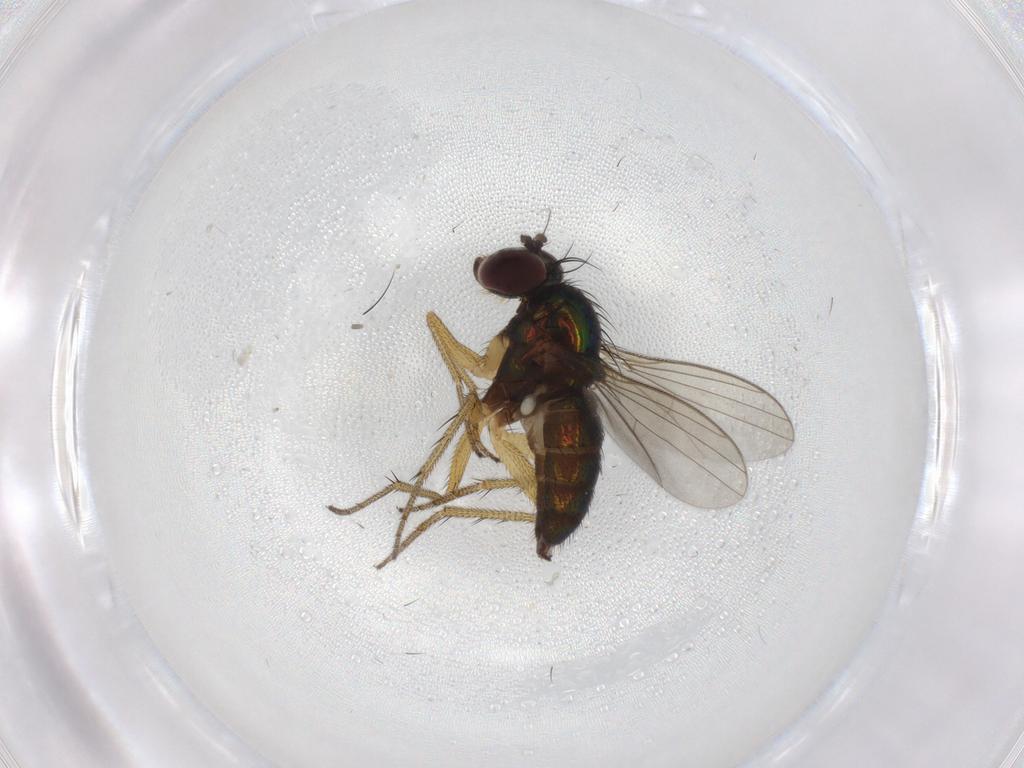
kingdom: Animalia
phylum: Arthropoda
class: Insecta
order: Diptera
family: Dolichopodidae
